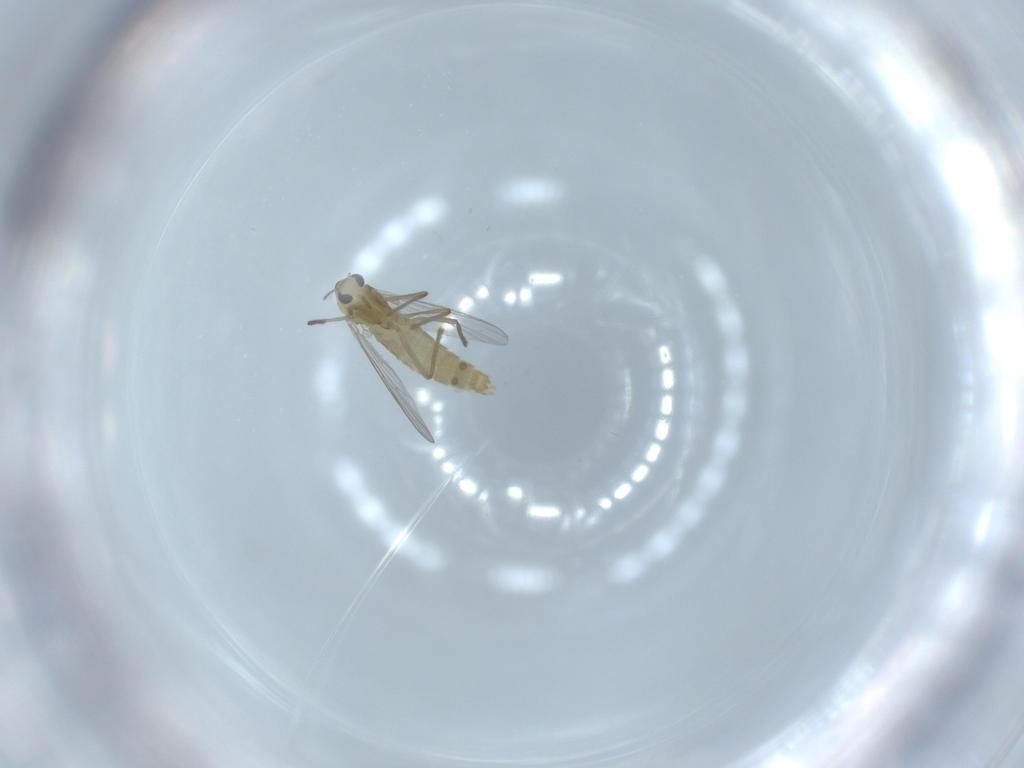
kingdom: Animalia
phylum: Arthropoda
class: Insecta
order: Diptera
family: Chironomidae
